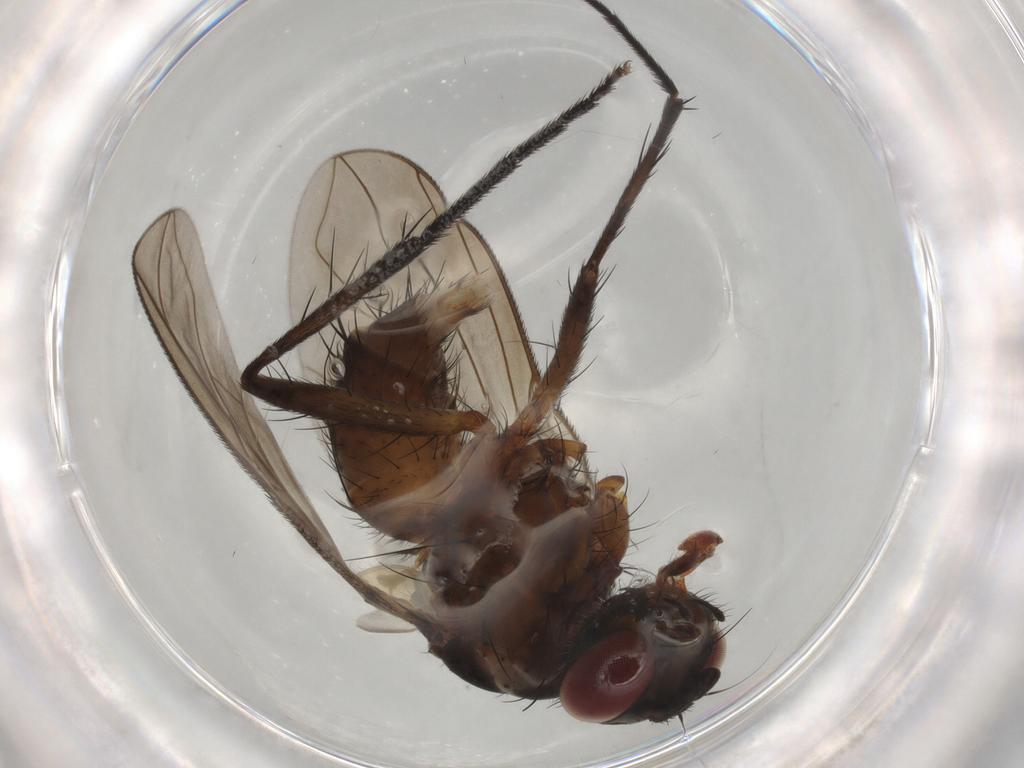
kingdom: Animalia
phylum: Arthropoda
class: Insecta
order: Diptera
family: Muscidae
